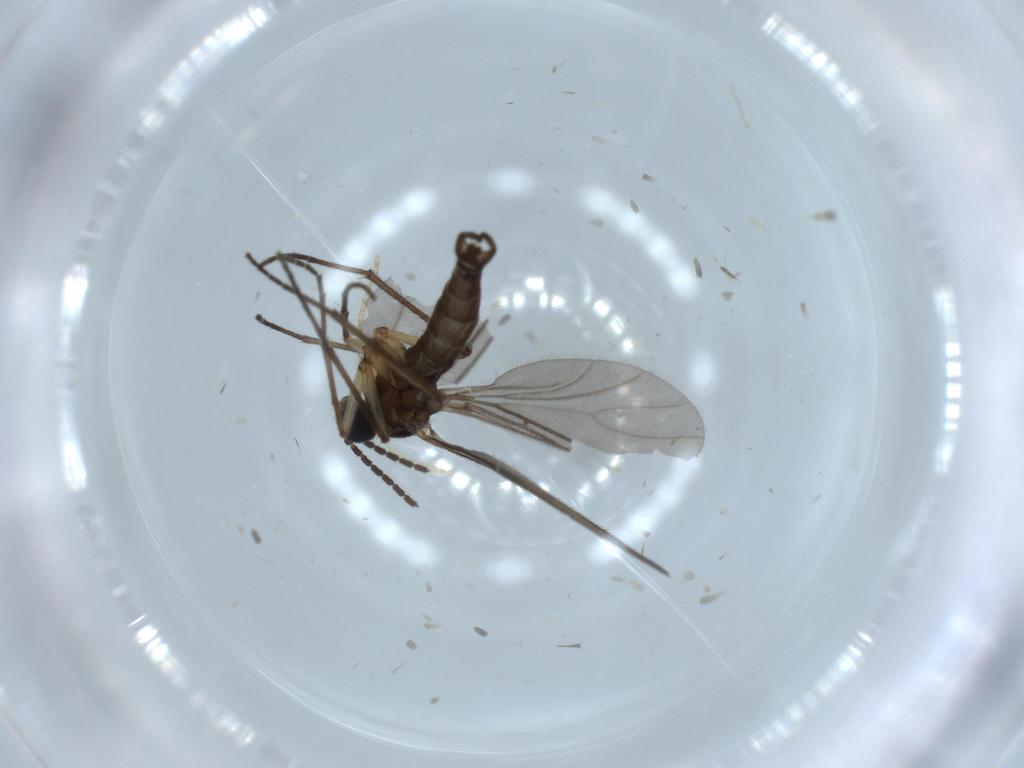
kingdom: Animalia
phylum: Arthropoda
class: Insecta
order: Diptera
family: Sciaridae
